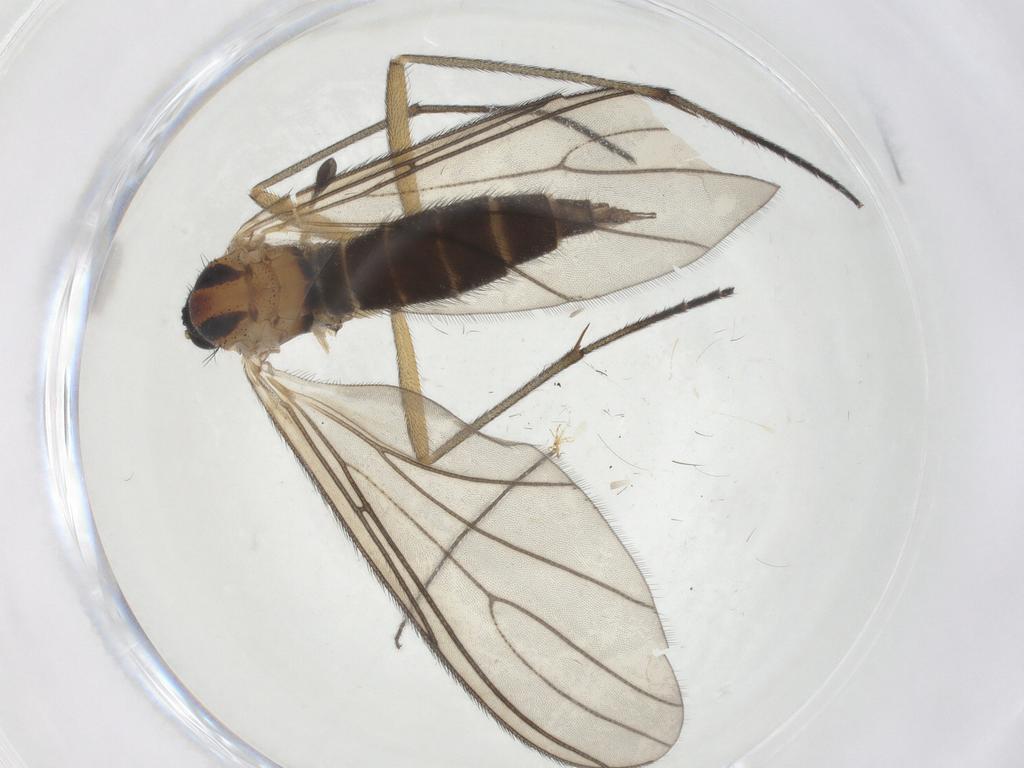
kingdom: Animalia
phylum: Arthropoda
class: Insecta
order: Diptera
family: Sciaridae
